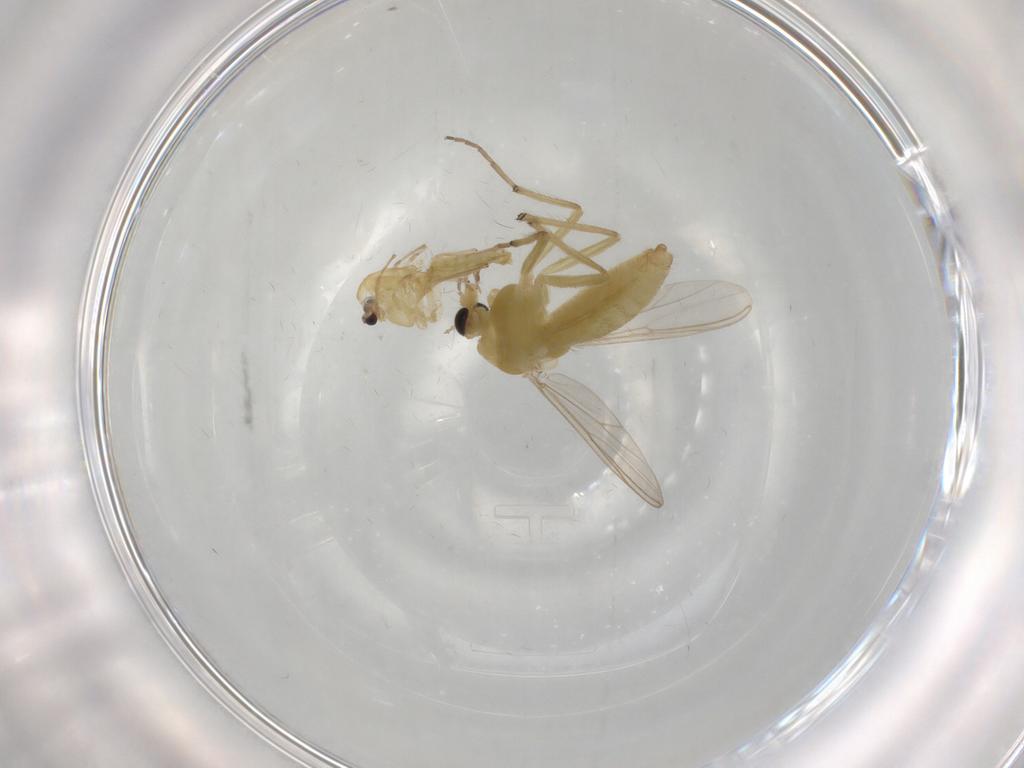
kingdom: Animalia
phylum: Arthropoda
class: Insecta
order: Diptera
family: Chironomidae
